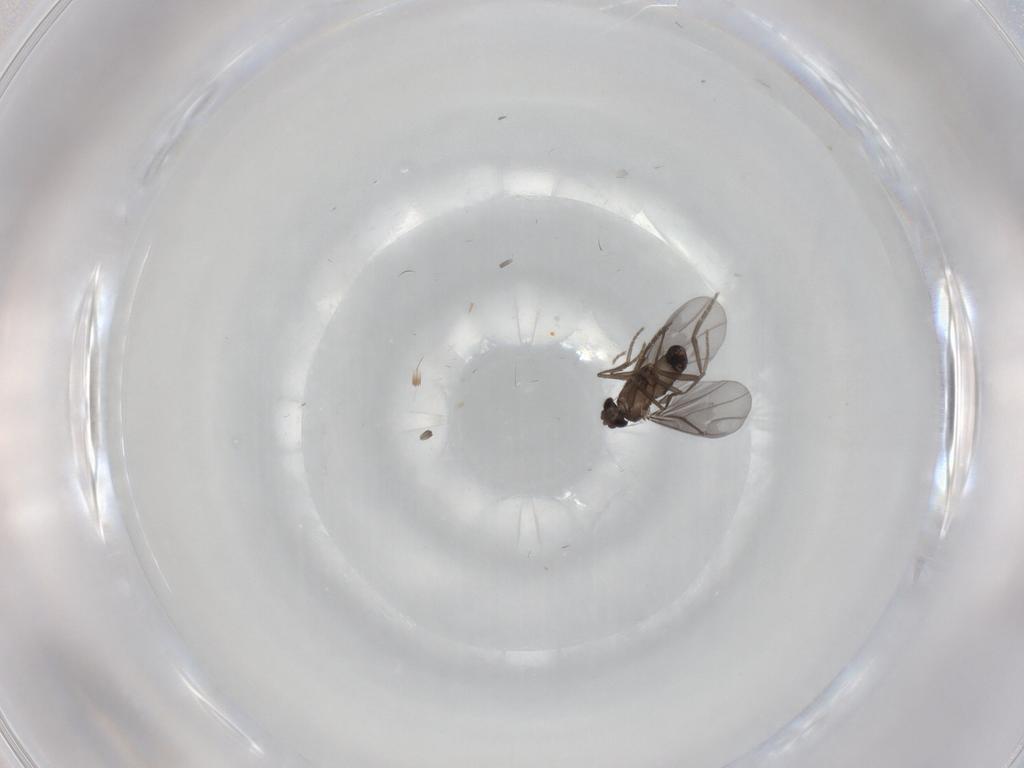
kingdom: Animalia
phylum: Arthropoda
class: Insecta
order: Diptera
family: Phoridae
